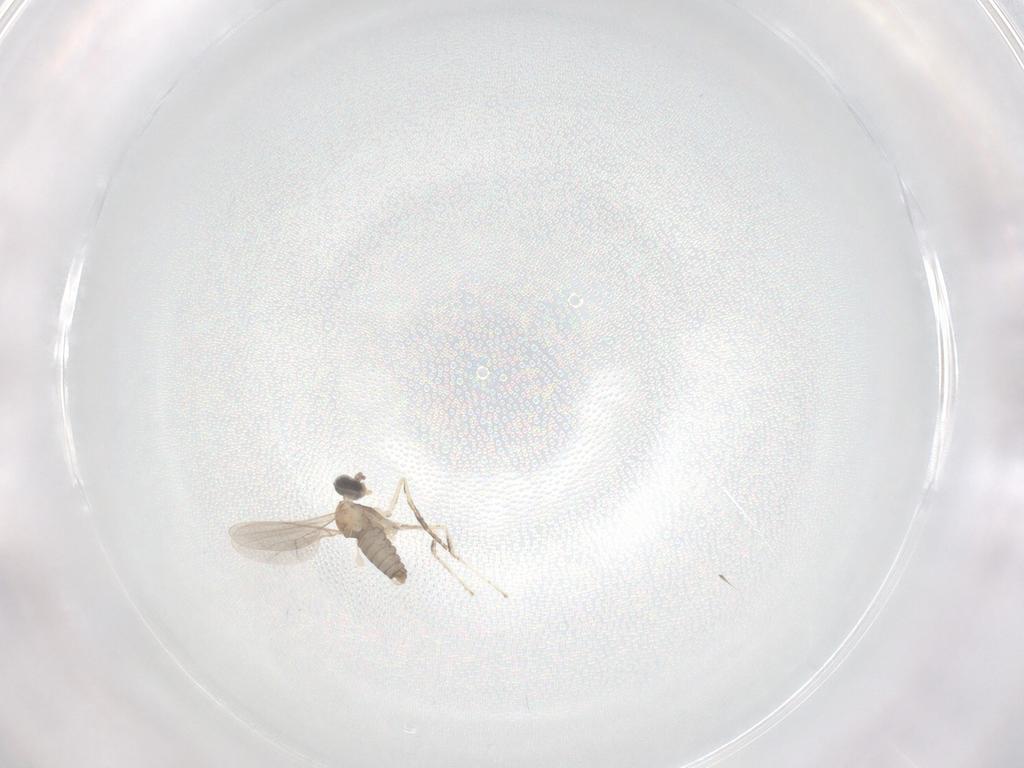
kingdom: Animalia
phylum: Arthropoda
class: Insecta
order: Diptera
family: Cecidomyiidae
